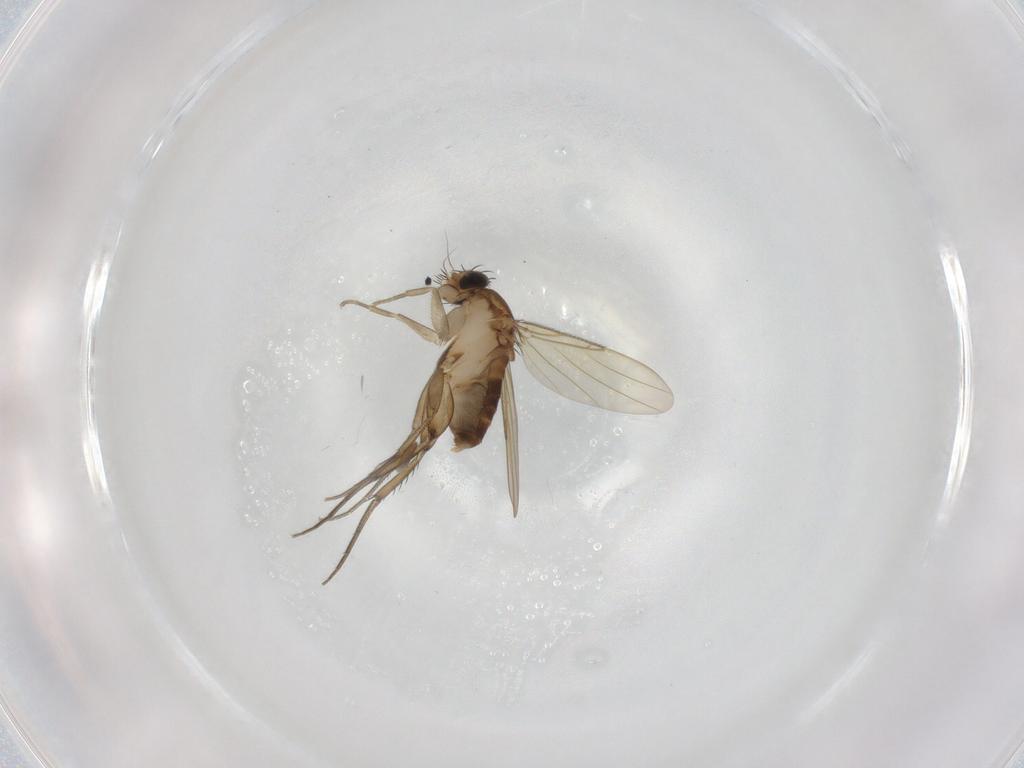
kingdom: Animalia
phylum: Arthropoda
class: Insecta
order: Diptera
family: Phoridae
